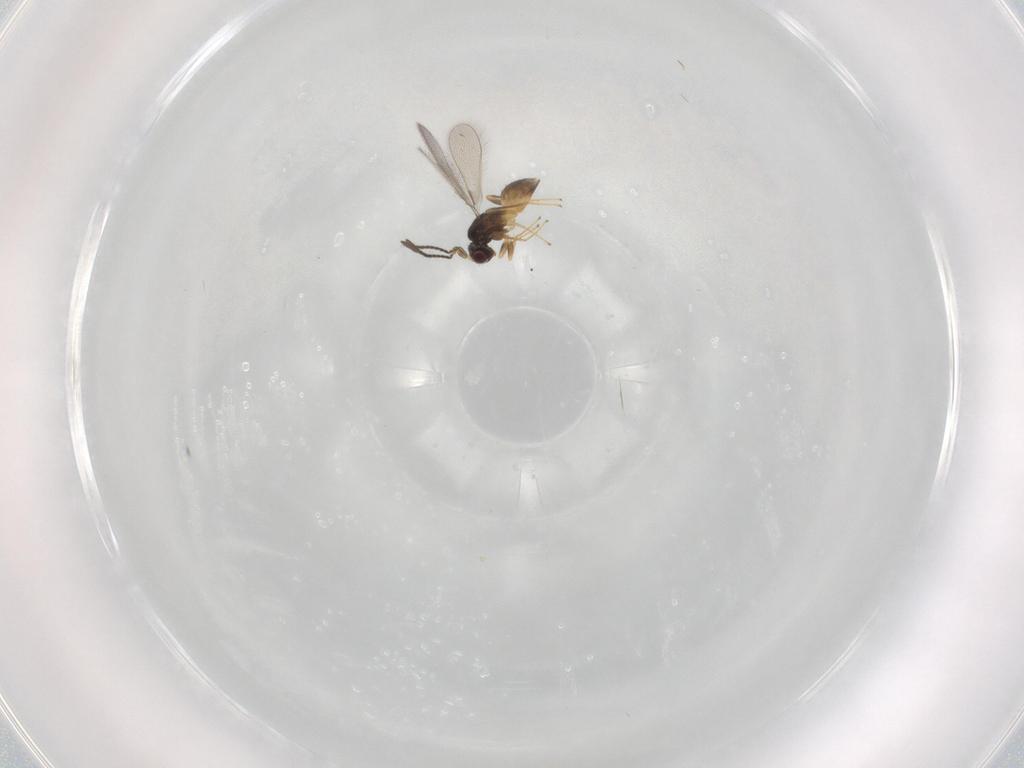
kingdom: Animalia
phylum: Arthropoda
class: Insecta
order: Hymenoptera
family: Mymaridae
